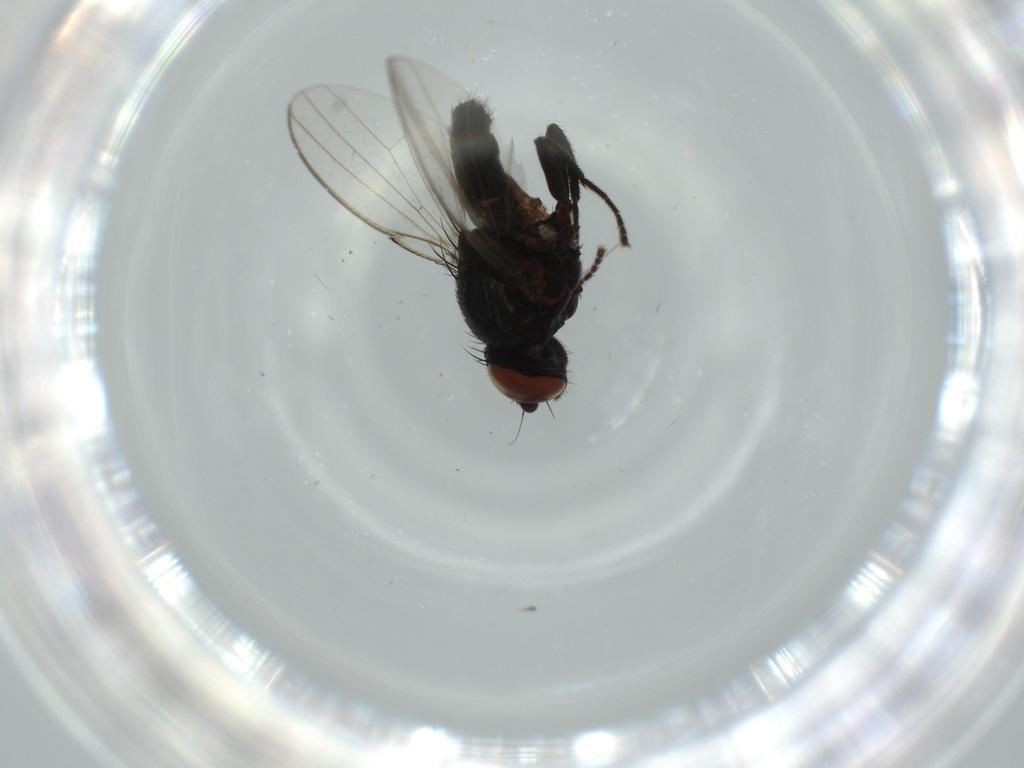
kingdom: Animalia
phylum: Arthropoda
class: Insecta
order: Diptera
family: Milichiidae
